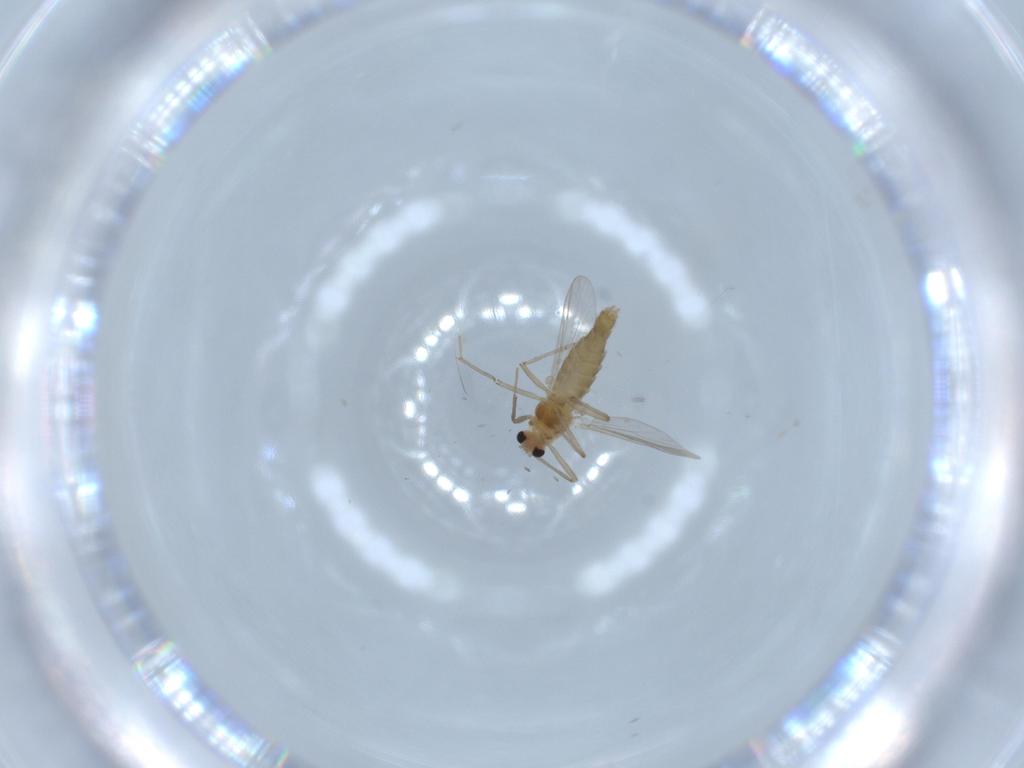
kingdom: Animalia
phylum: Arthropoda
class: Insecta
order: Diptera
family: Chironomidae
